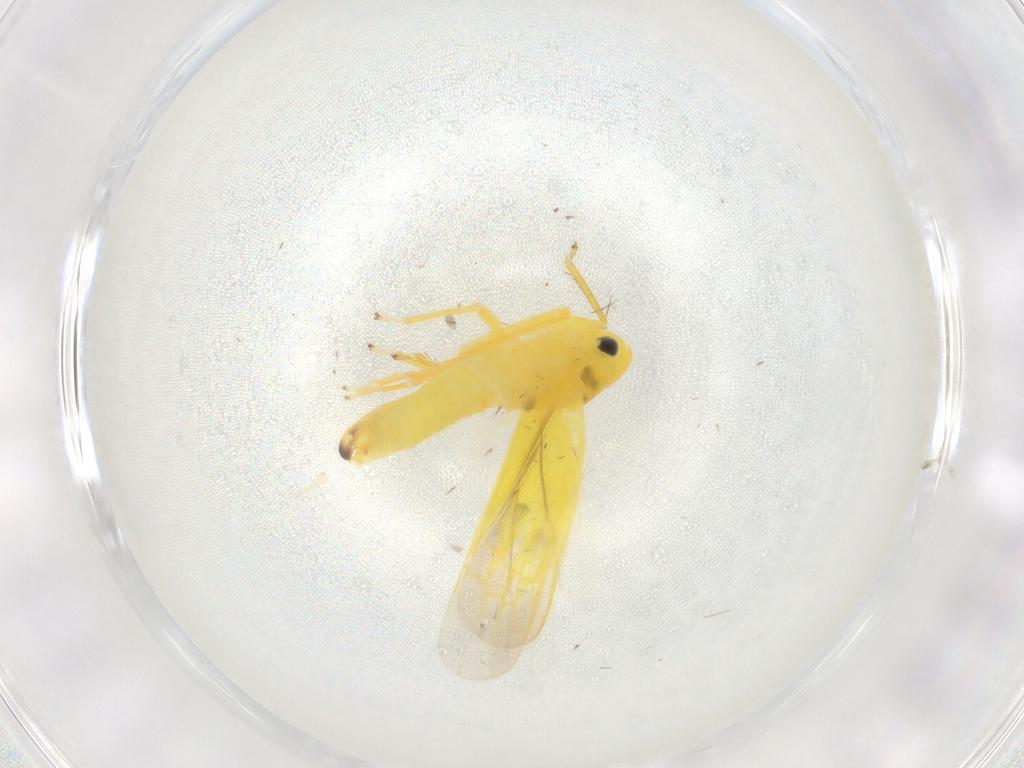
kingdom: Animalia
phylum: Arthropoda
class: Insecta
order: Hemiptera
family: Cicadellidae
